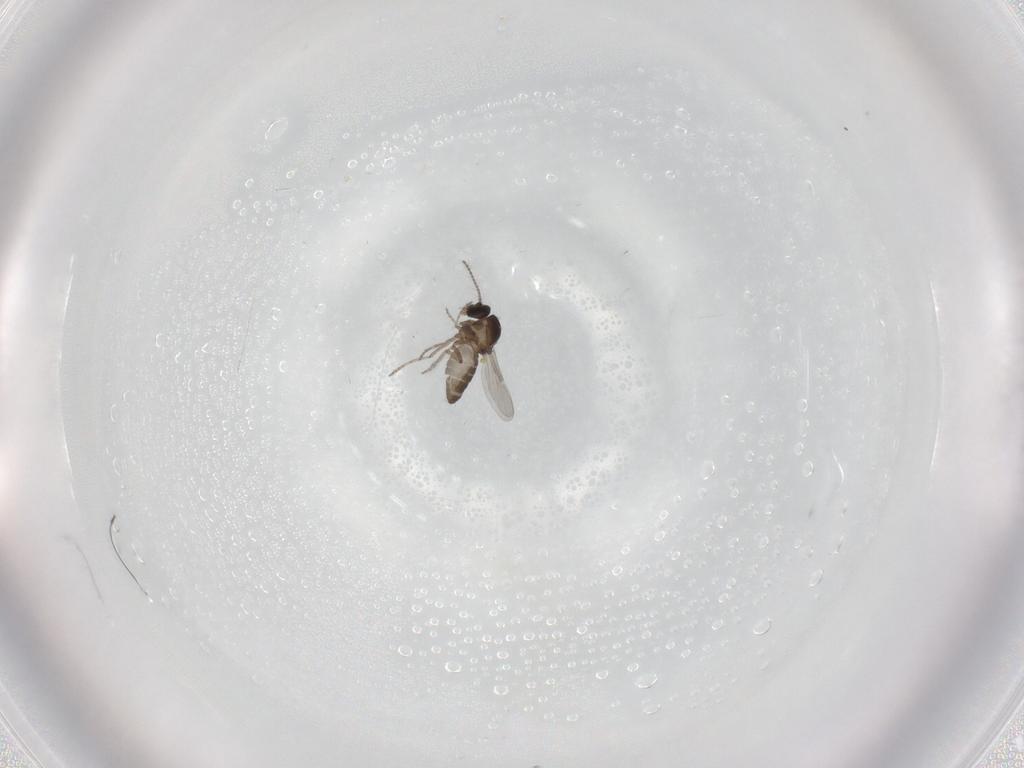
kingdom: Animalia
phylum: Arthropoda
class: Insecta
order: Diptera
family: Ceratopogonidae
